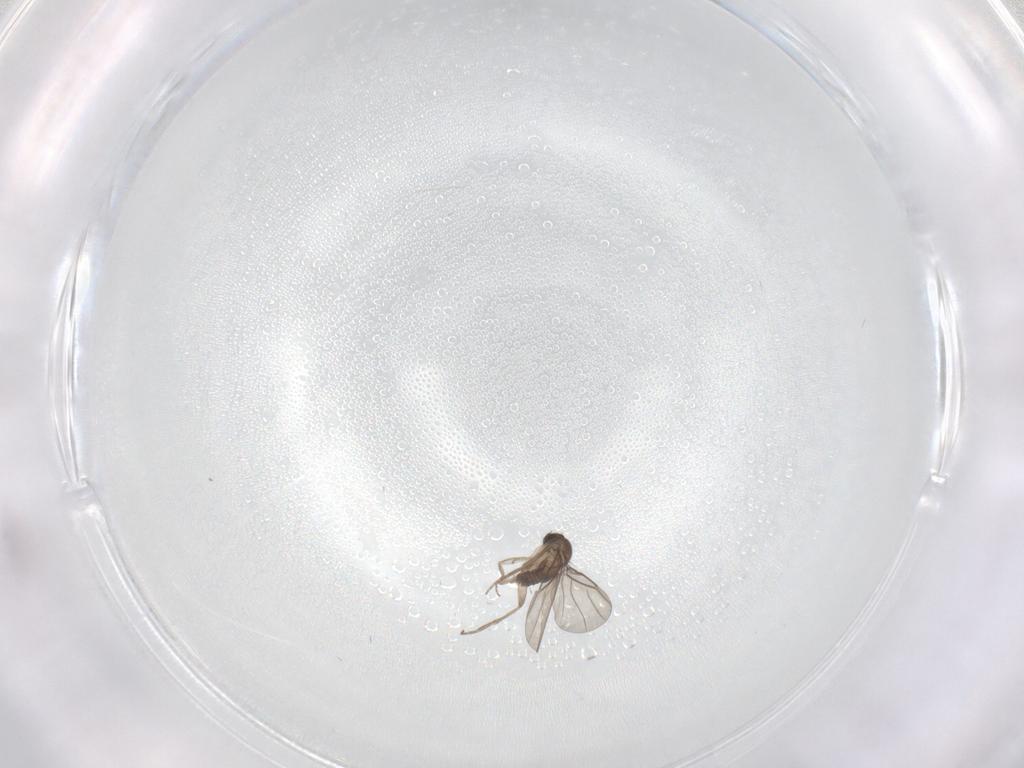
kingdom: Animalia
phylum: Arthropoda
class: Insecta
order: Diptera
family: Phoridae
